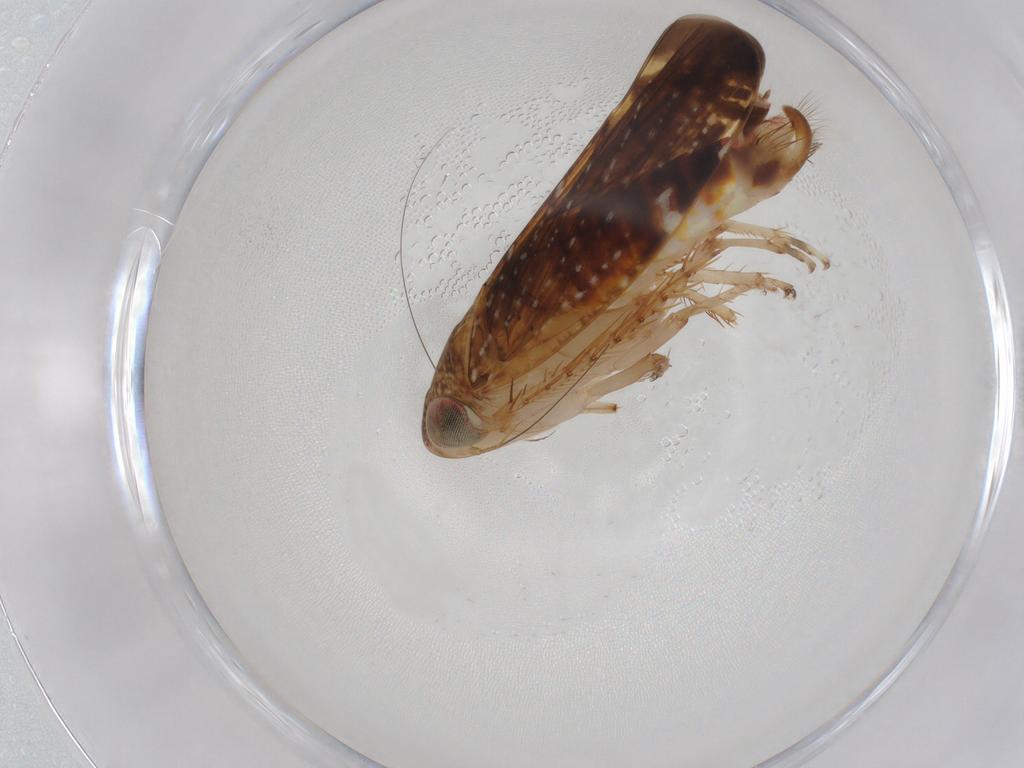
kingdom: Animalia
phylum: Arthropoda
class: Insecta
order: Hemiptera
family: Cicadellidae
